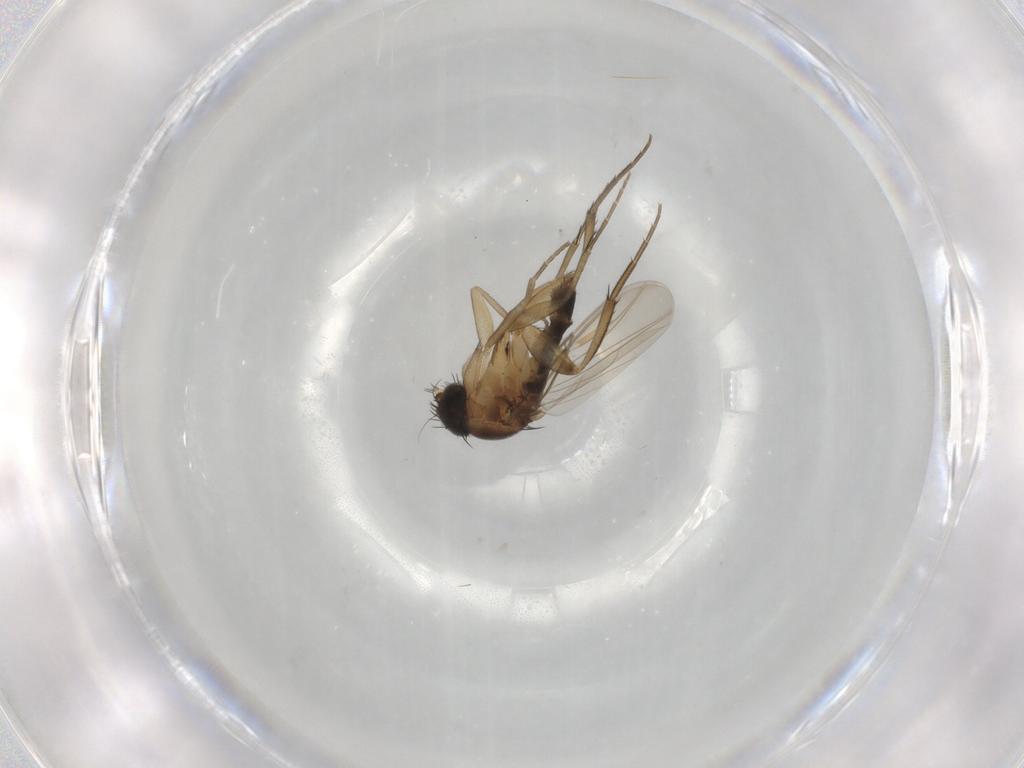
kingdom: Animalia
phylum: Arthropoda
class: Insecta
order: Diptera
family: Phoridae
